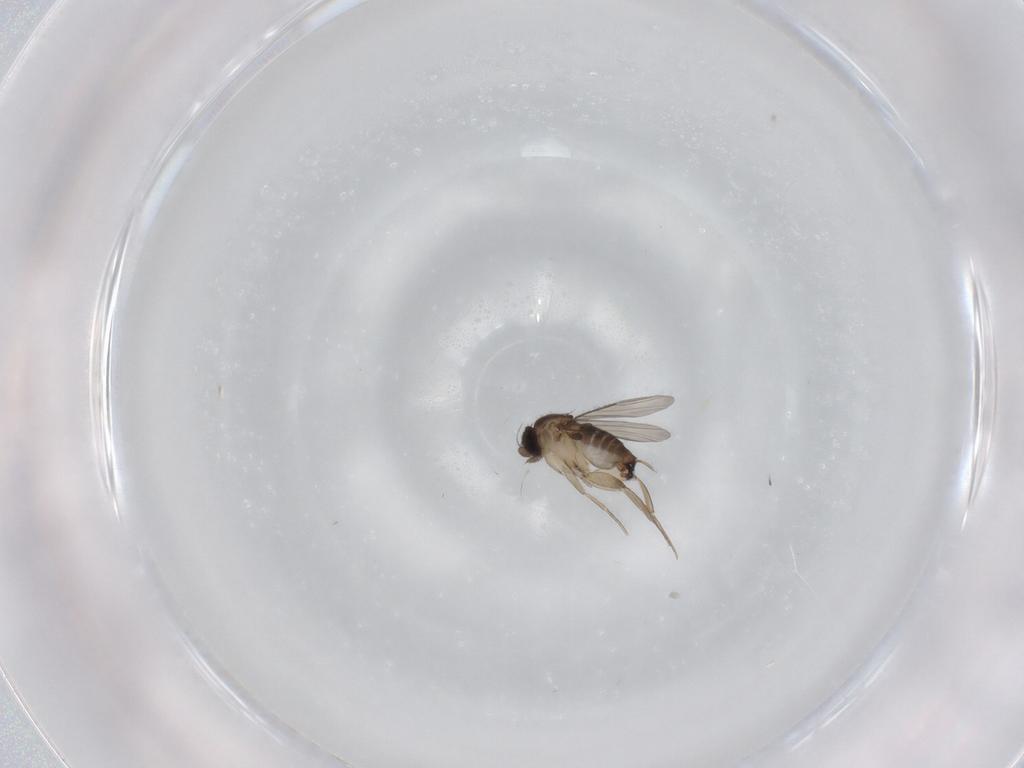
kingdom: Animalia
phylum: Arthropoda
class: Insecta
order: Diptera
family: Phoridae
